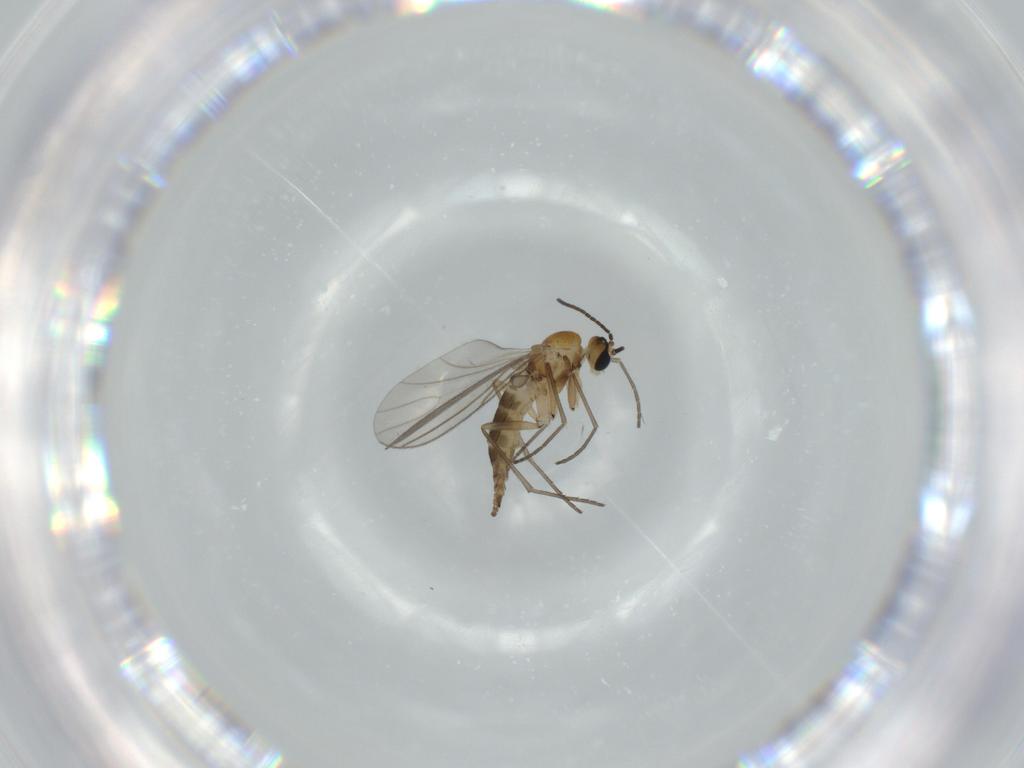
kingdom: Animalia
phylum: Arthropoda
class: Insecta
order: Diptera
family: Sciaridae
